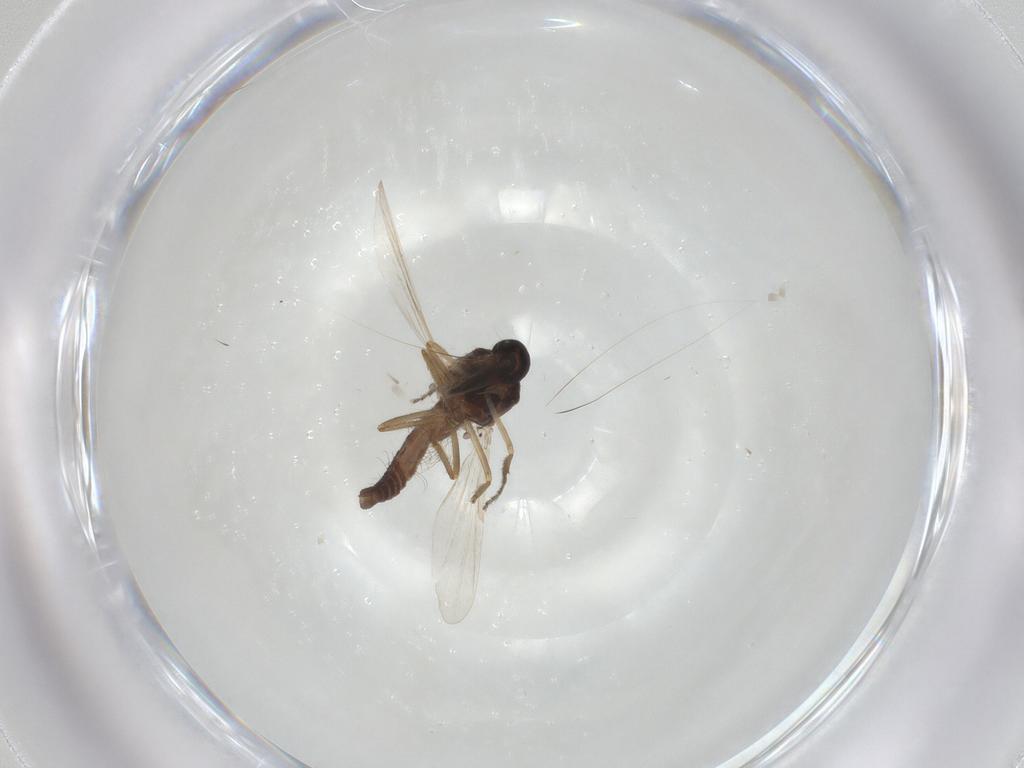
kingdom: Animalia
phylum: Arthropoda
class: Insecta
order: Diptera
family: Ceratopogonidae
